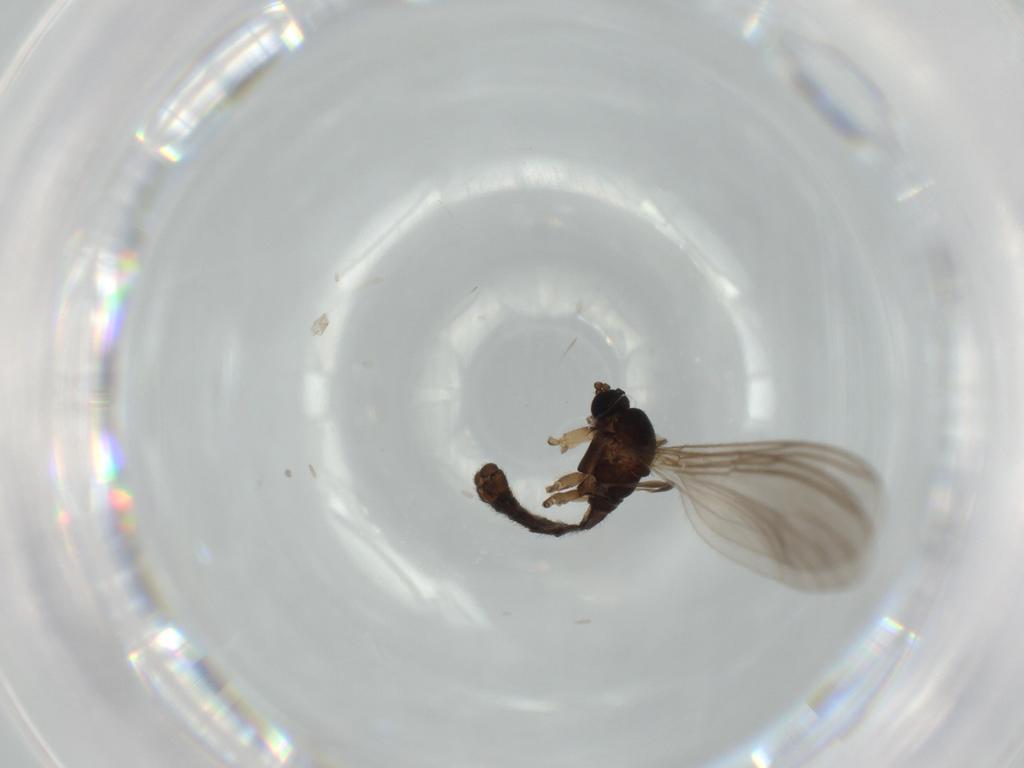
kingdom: Animalia
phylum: Arthropoda
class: Insecta
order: Diptera
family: Sciaridae
